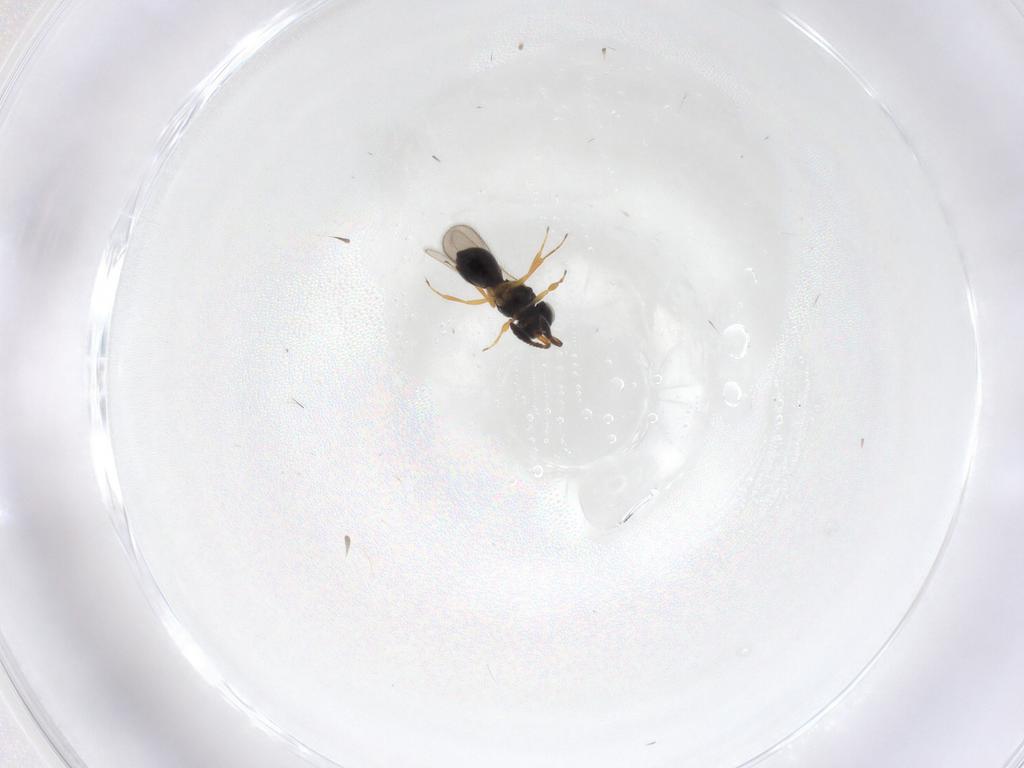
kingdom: Animalia
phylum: Arthropoda
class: Insecta
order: Hymenoptera
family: Scelionidae
